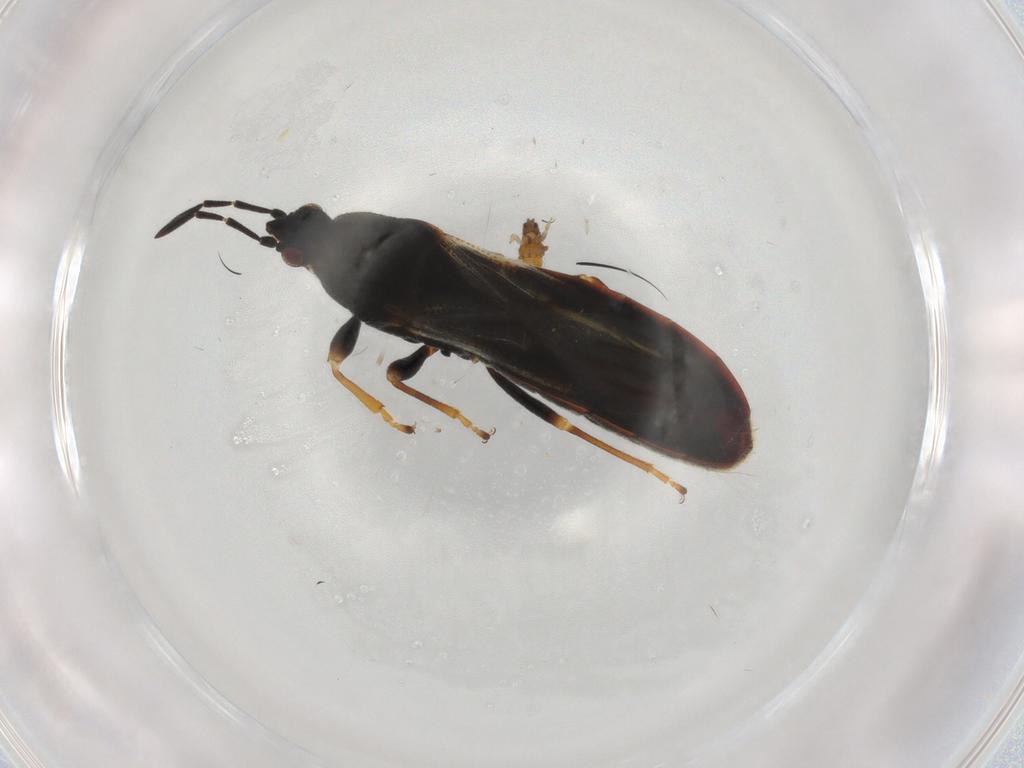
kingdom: Animalia
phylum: Arthropoda
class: Insecta
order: Hemiptera
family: Blissidae
